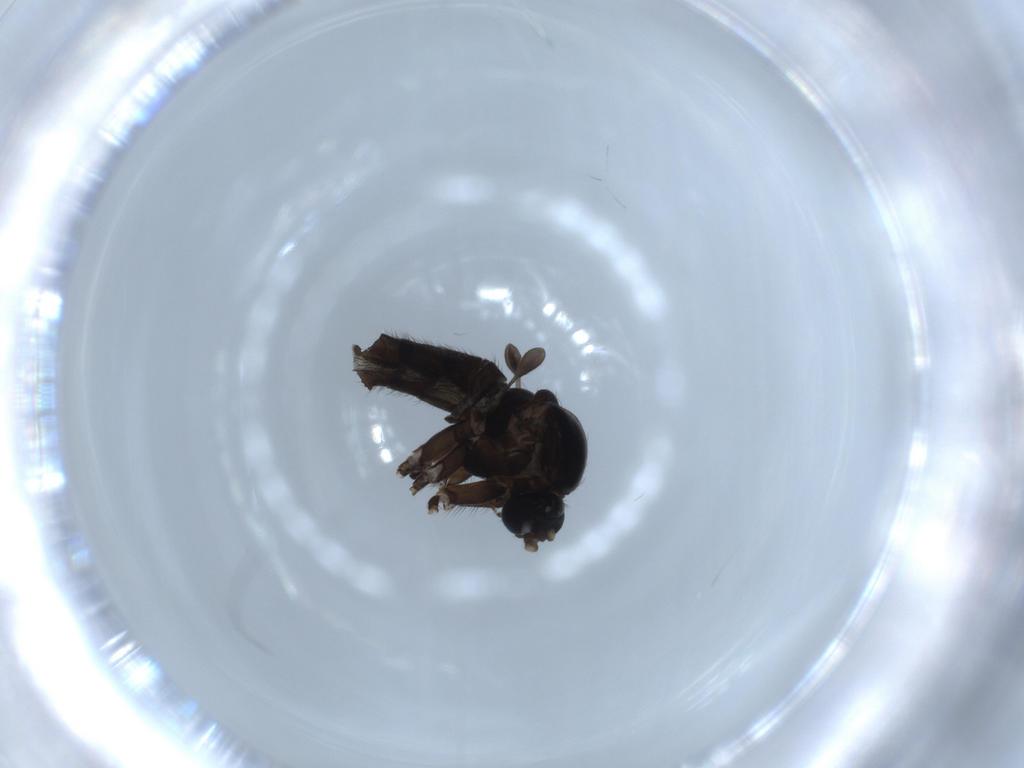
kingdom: Animalia
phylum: Arthropoda
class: Insecta
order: Diptera
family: Sciaridae
